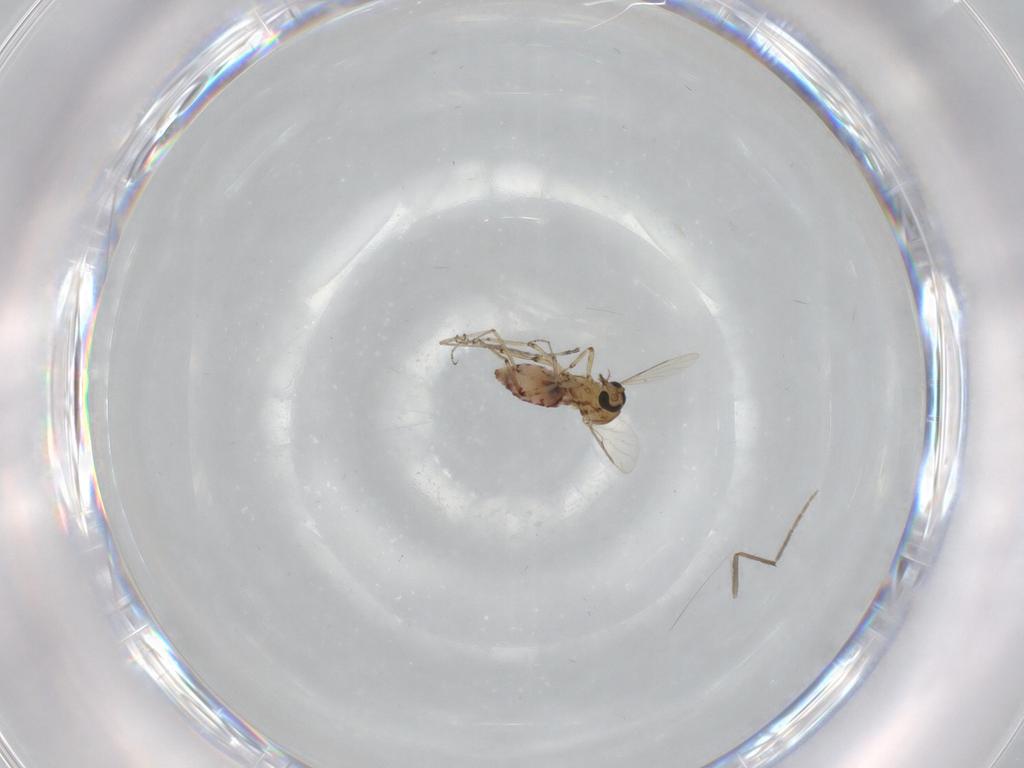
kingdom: Animalia
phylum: Arthropoda
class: Insecta
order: Diptera
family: Chironomidae
